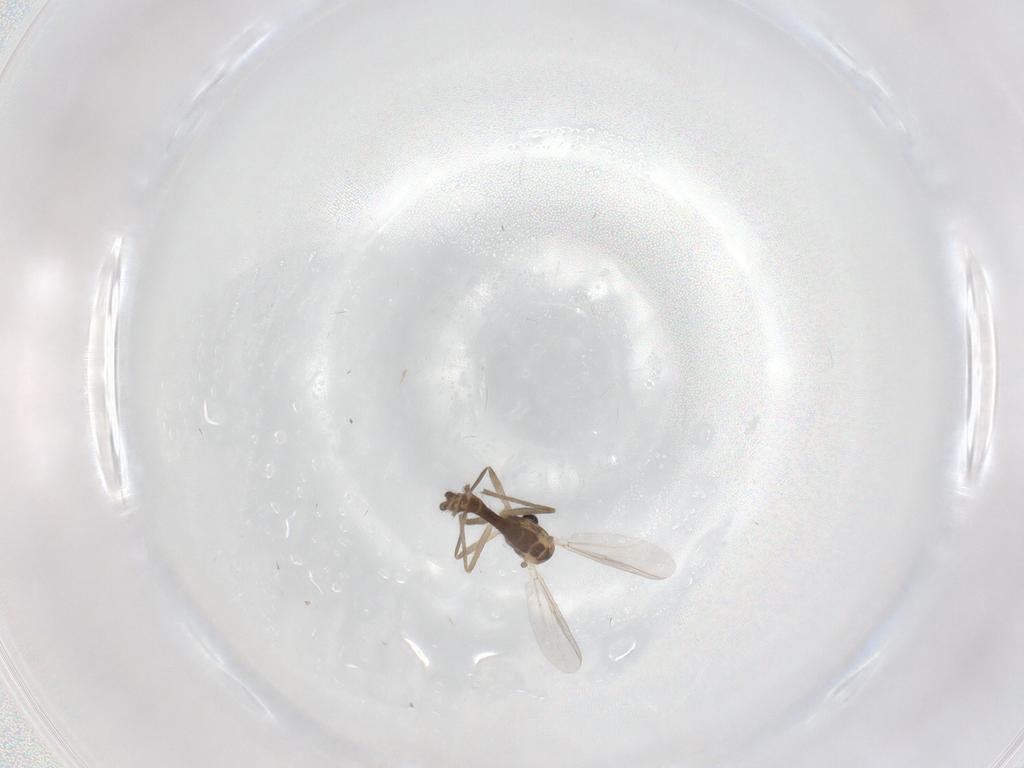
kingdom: Animalia
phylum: Arthropoda
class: Insecta
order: Diptera
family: Chironomidae
